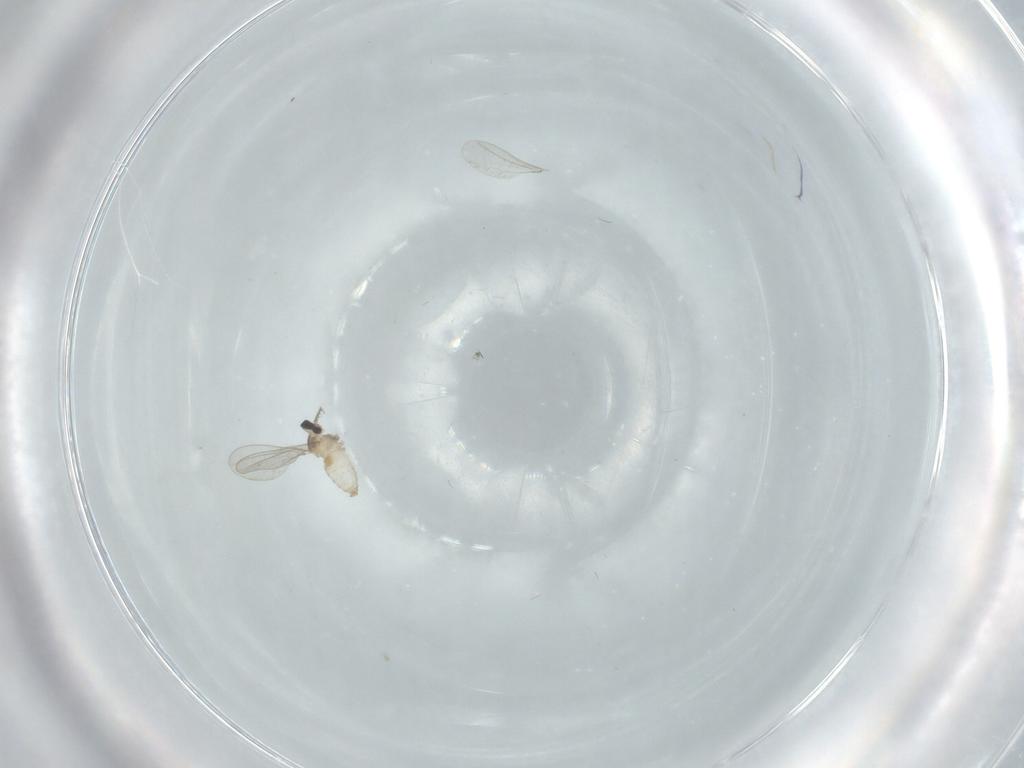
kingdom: Animalia
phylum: Arthropoda
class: Insecta
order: Diptera
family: Cecidomyiidae
